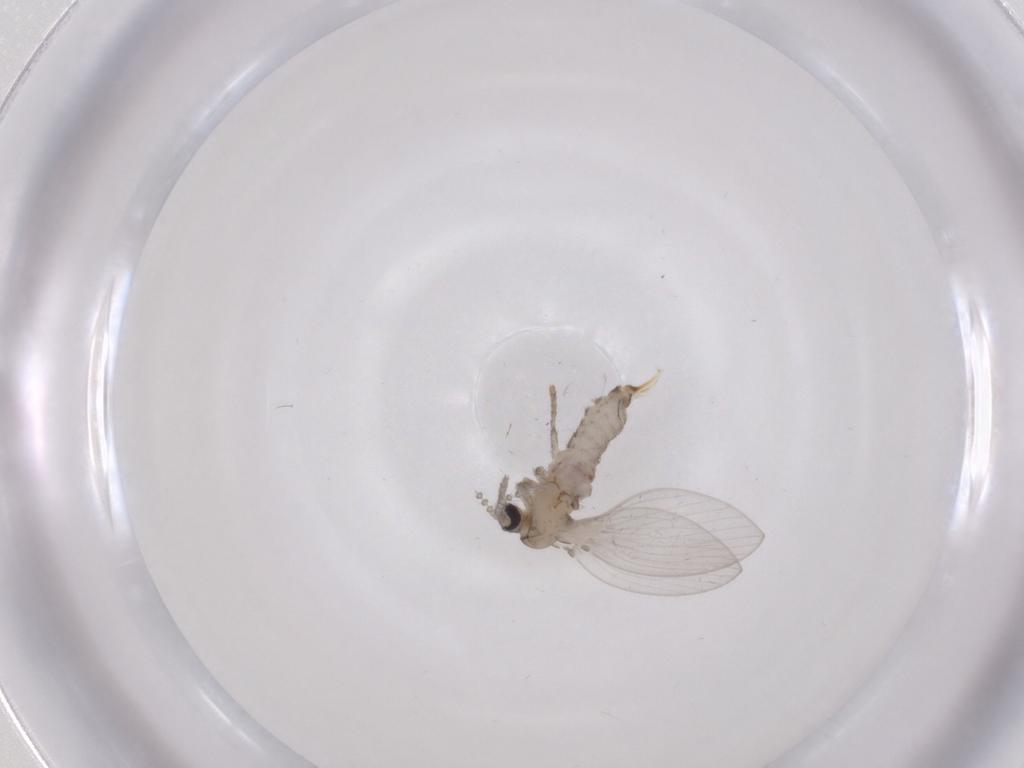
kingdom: Animalia
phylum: Arthropoda
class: Insecta
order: Diptera
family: Psychodidae
